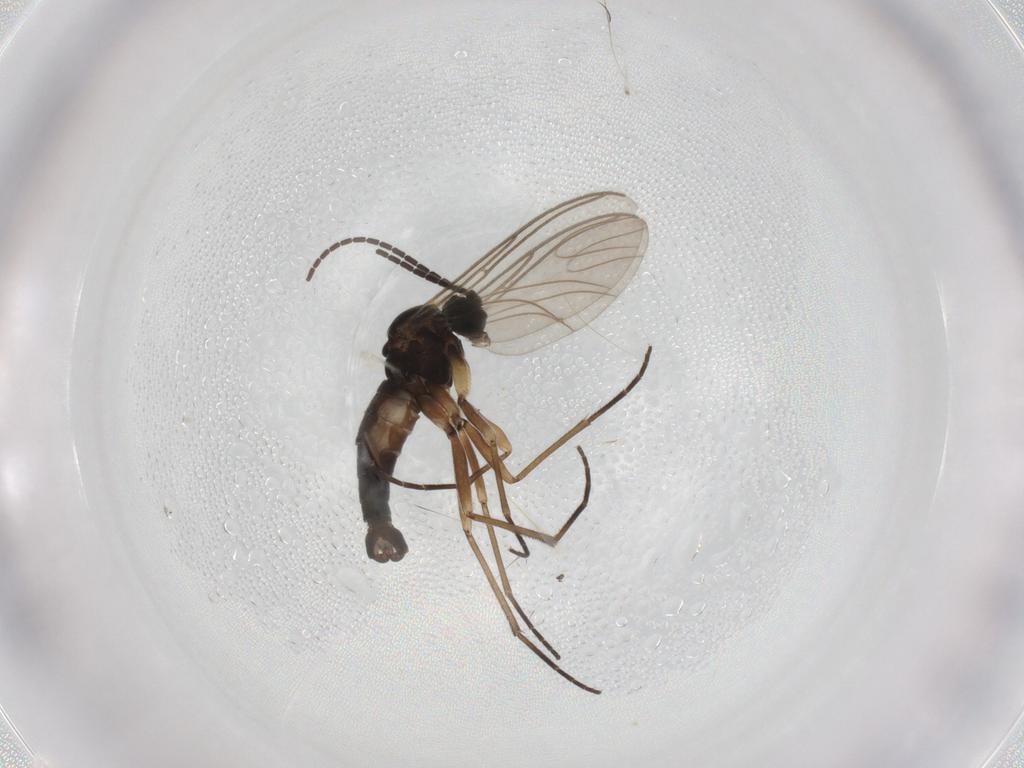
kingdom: Animalia
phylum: Arthropoda
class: Insecta
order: Diptera
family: Sciaridae
